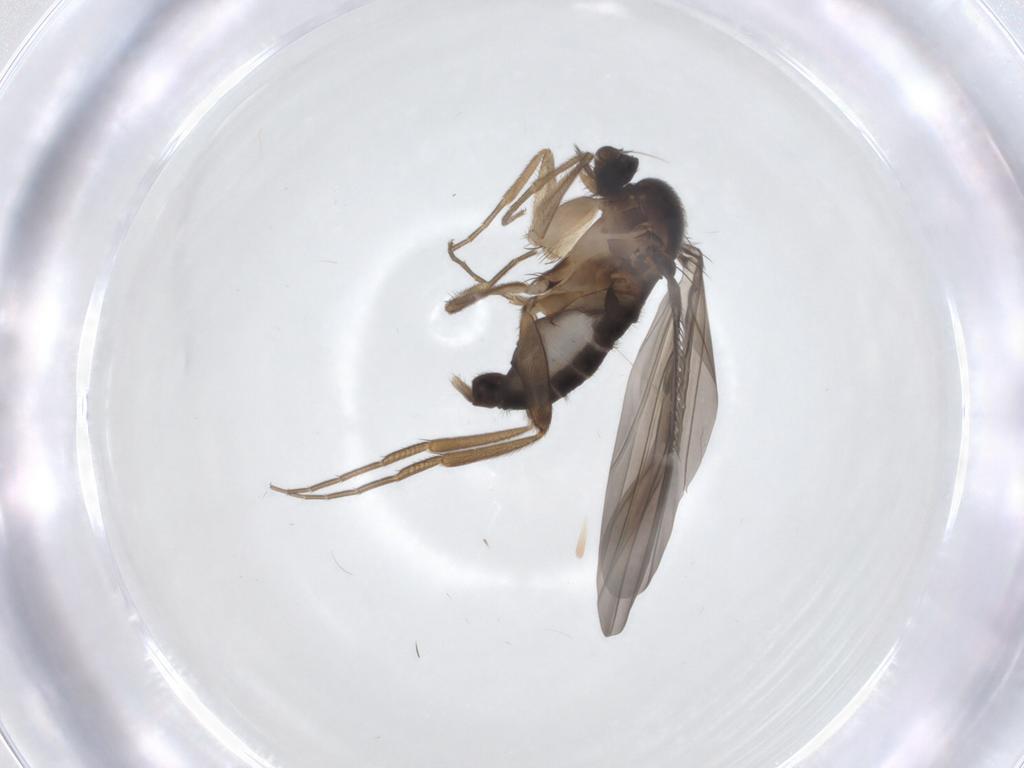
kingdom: Animalia
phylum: Arthropoda
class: Insecta
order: Diptera
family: Phoridae
